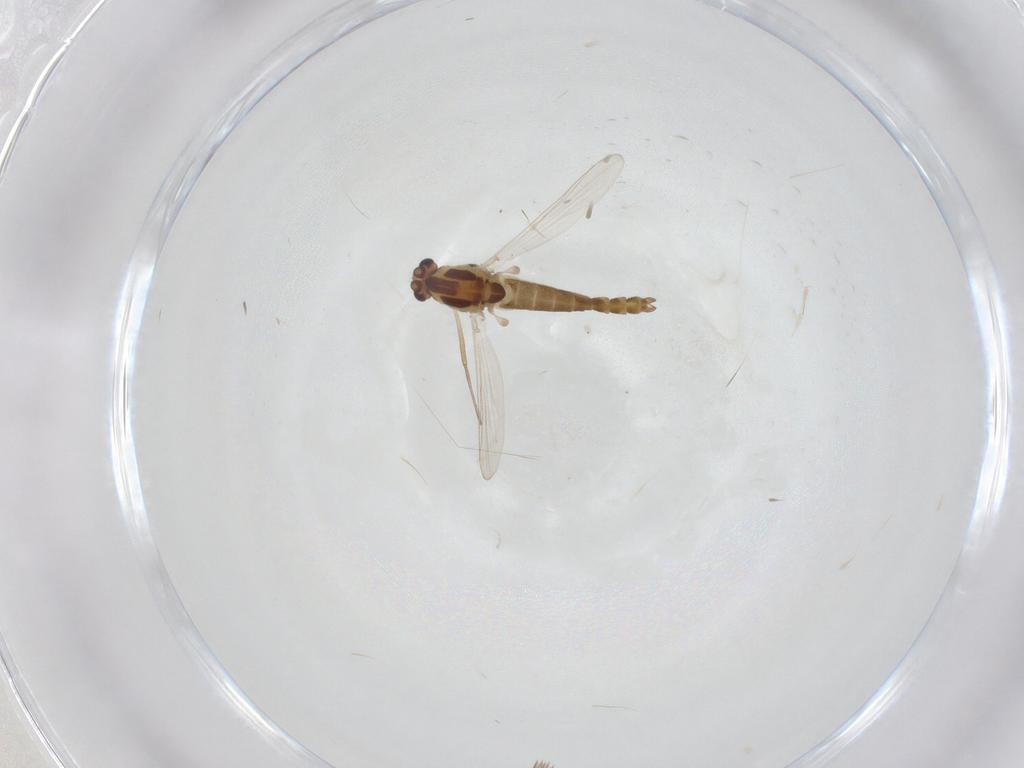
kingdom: Animalia
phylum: Arthropoda
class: Insecta
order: Diptera
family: Chironomidae
